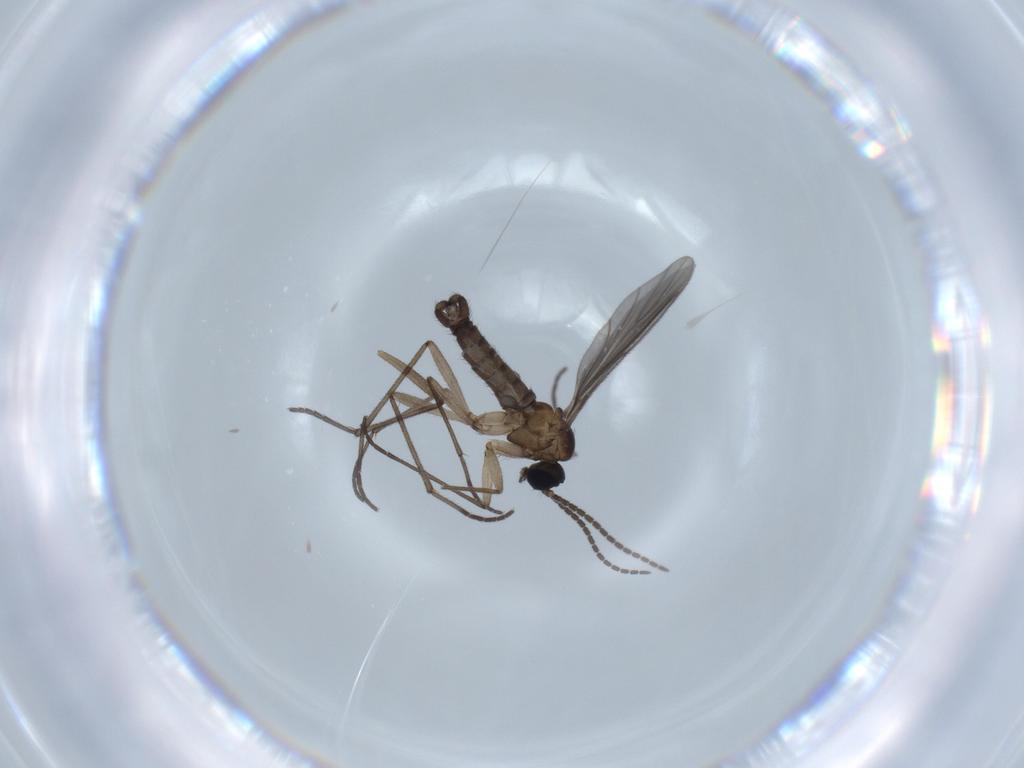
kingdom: Animalia
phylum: Arthropoda
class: Insecta
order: Diptera
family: Sciaridae
